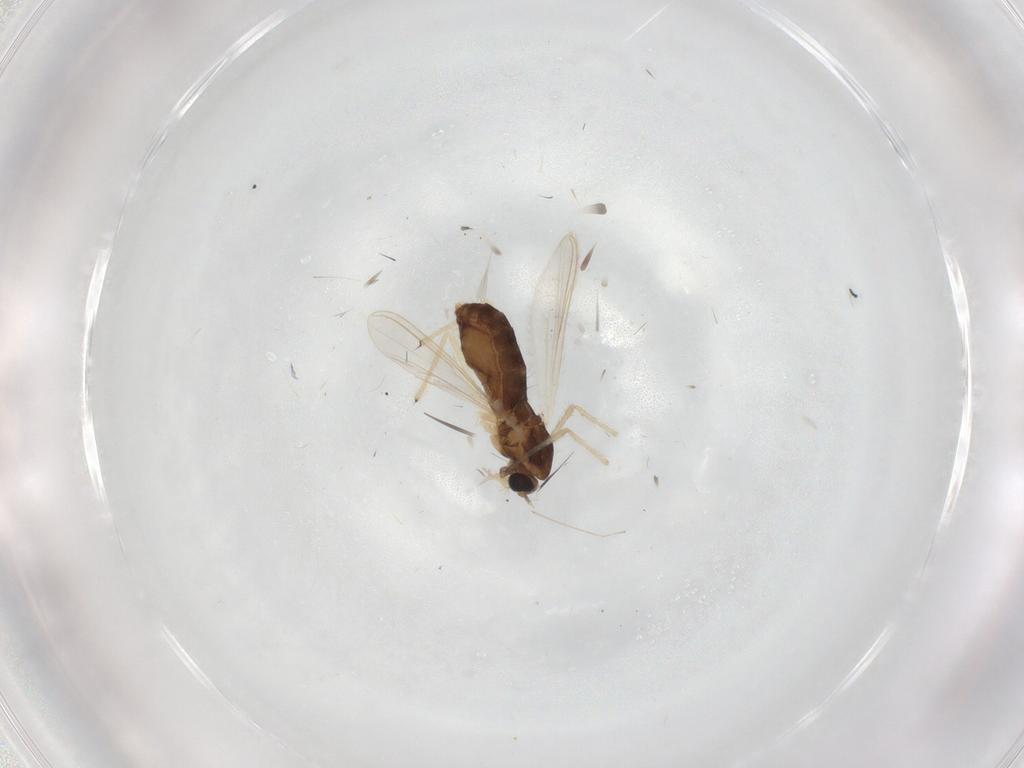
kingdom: Animalia
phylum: Arthropoda
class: Insecta
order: Diptera
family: Chironomidae
